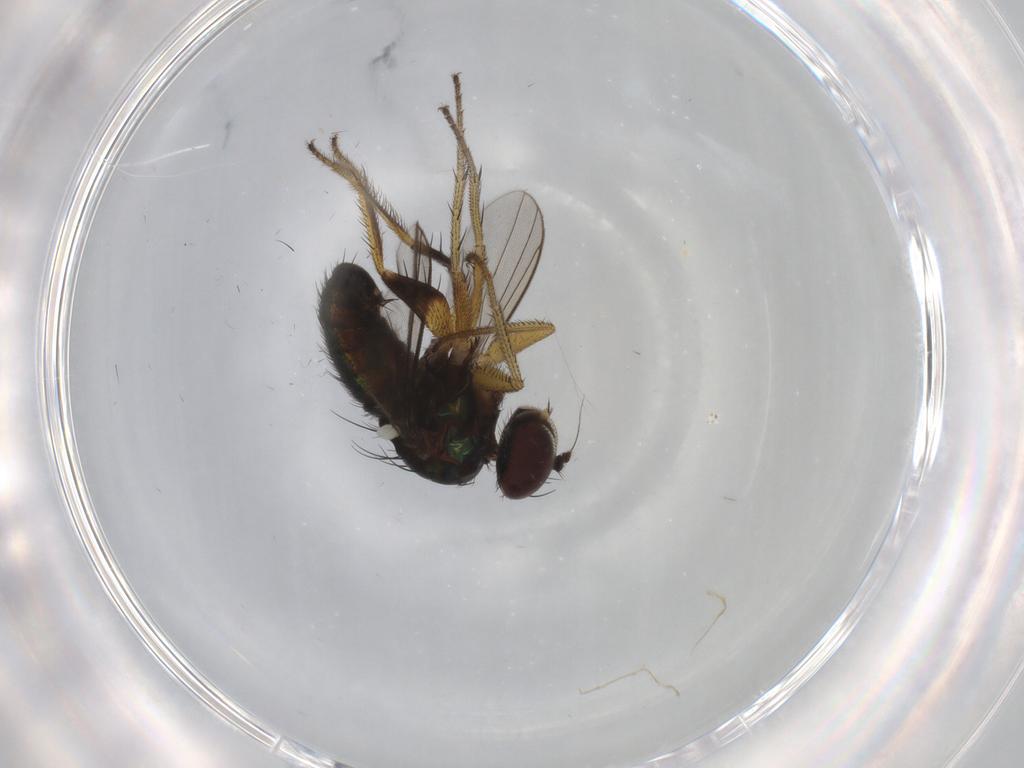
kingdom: Animalia
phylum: Arthropoda
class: Insecta
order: Diptera
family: Dolichopodidae
